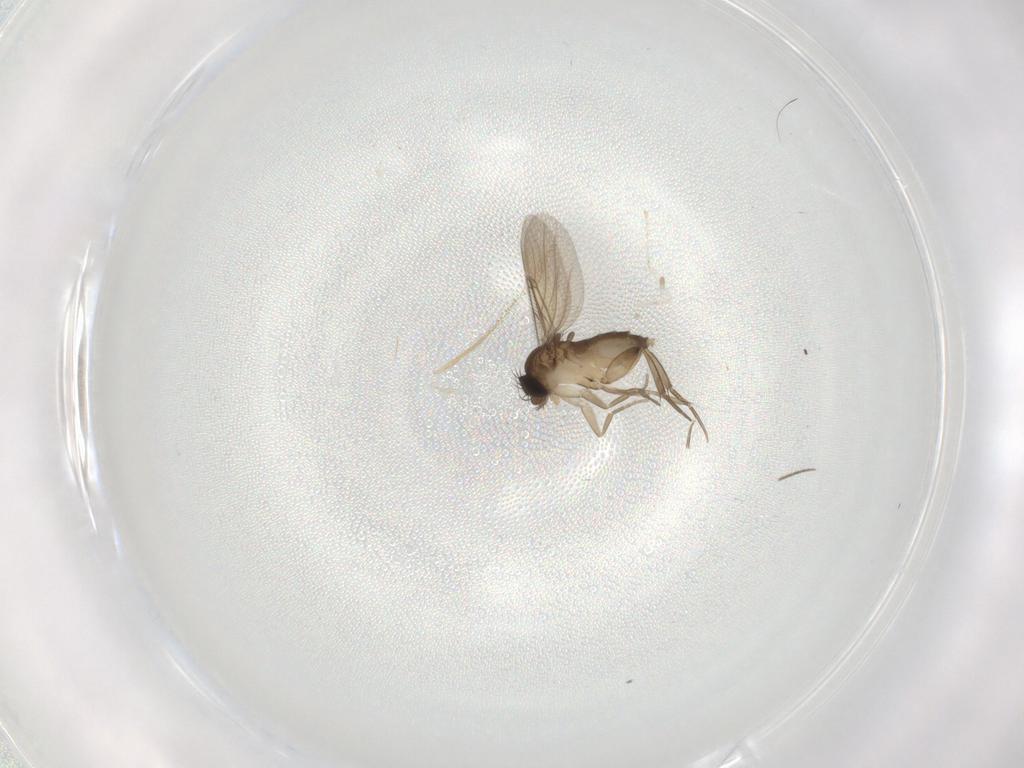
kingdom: Animalia
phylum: Arthropoda
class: Insecta
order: Diptera
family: Phoridae
